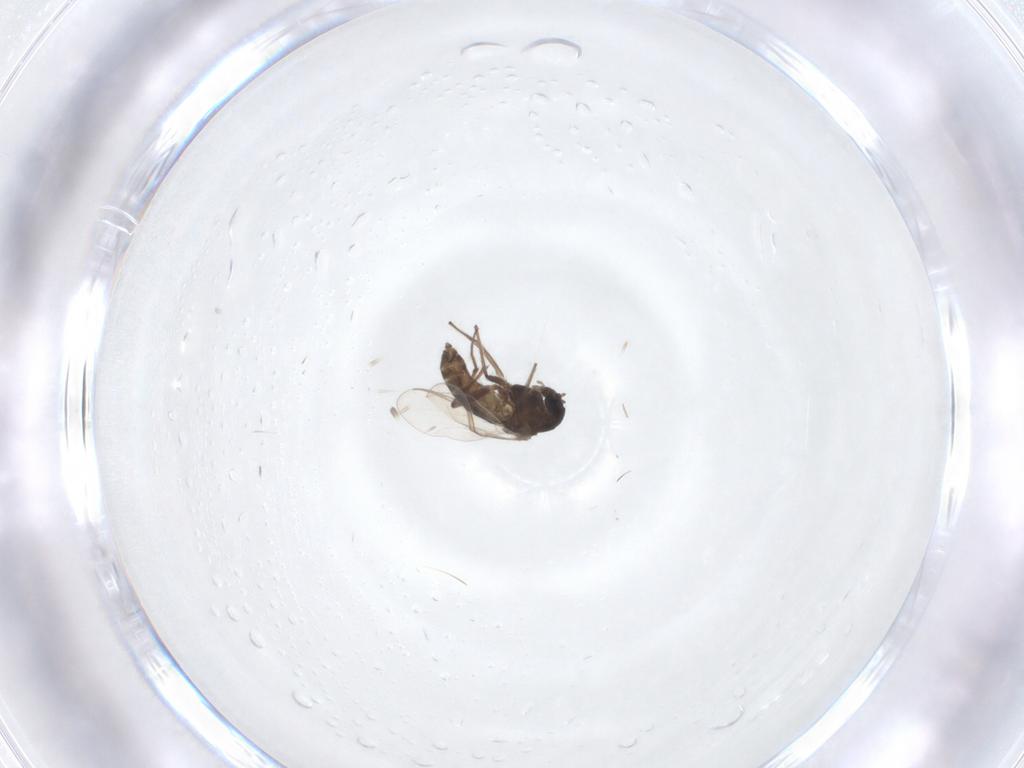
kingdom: Animalia
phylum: Arthropoda
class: Insecta
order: Diptera
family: Chironomidae
